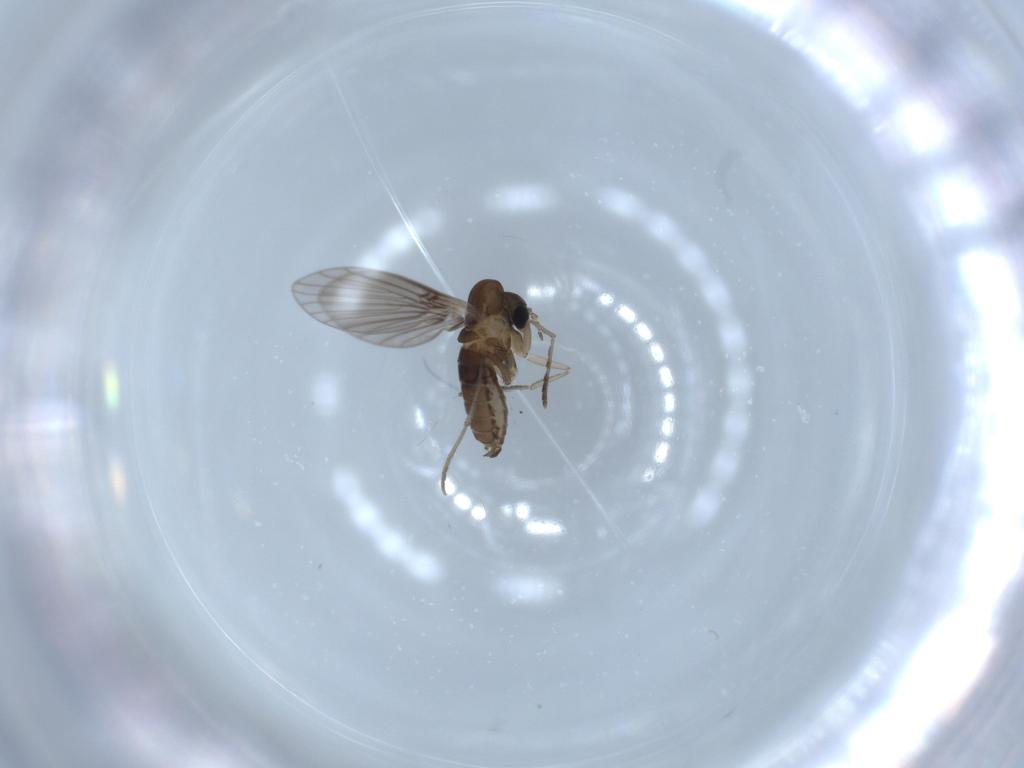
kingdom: Animalia
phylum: Arthropoda
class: Insecta
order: Diptera
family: Psychodidae
